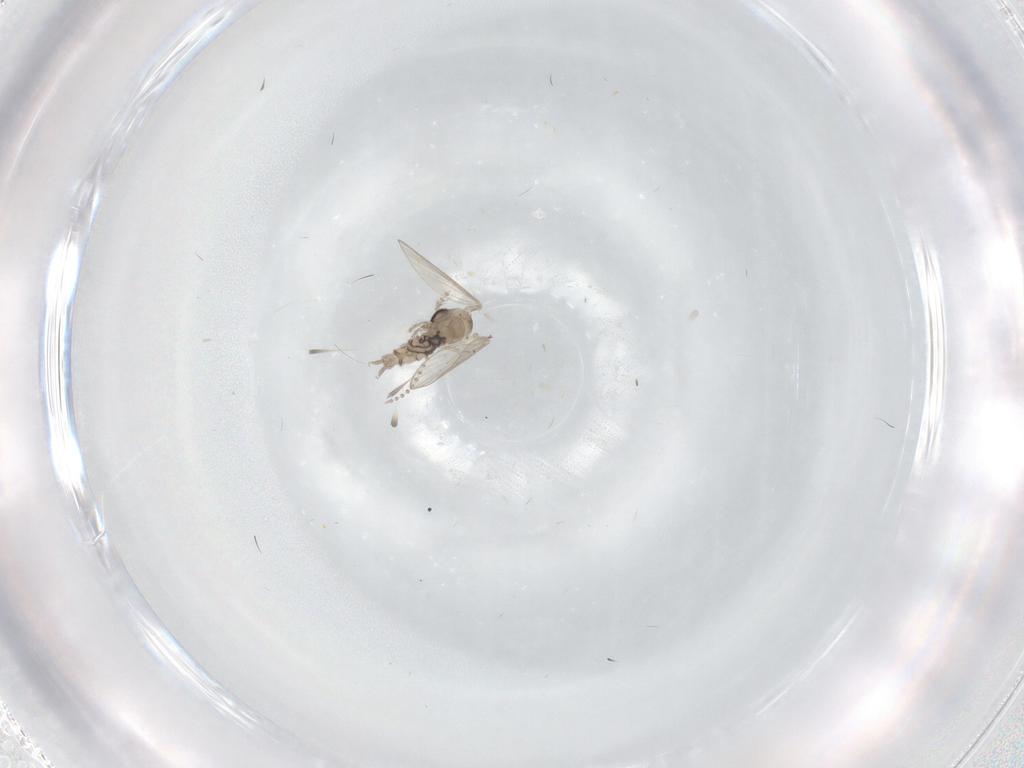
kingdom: Animalia
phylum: Arthropoda
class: Insecta
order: Diptera
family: Psychodidae
